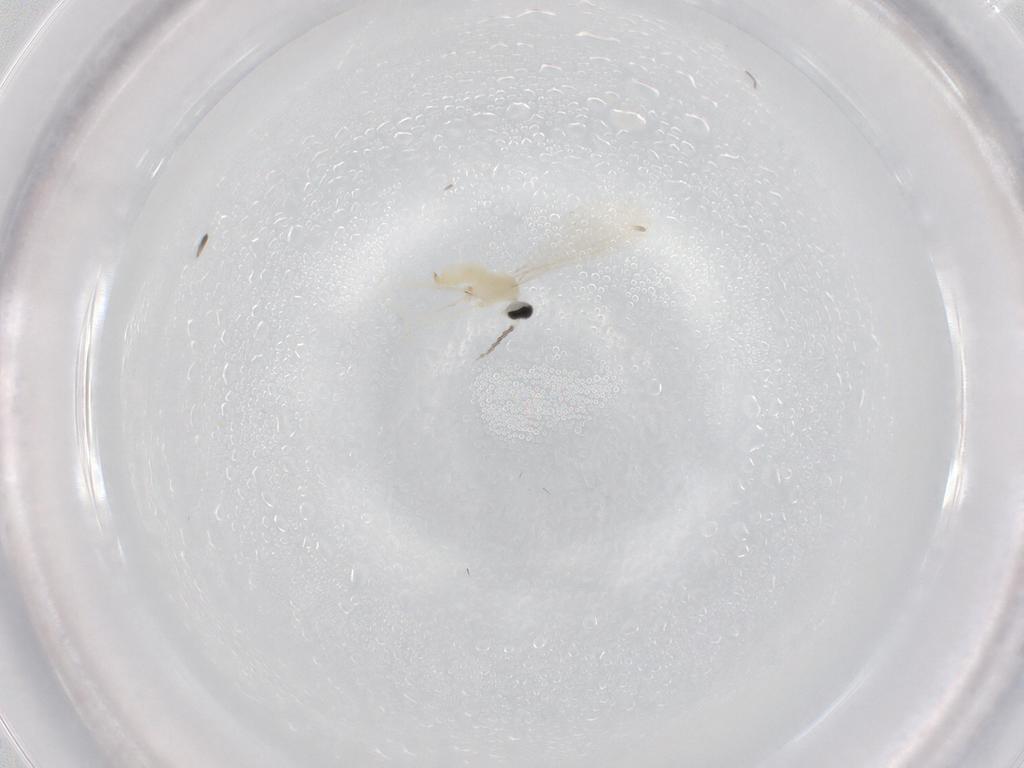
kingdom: Animalia
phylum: Arthropoda
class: Insecta
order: Diptera
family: Cecidomyiidae
